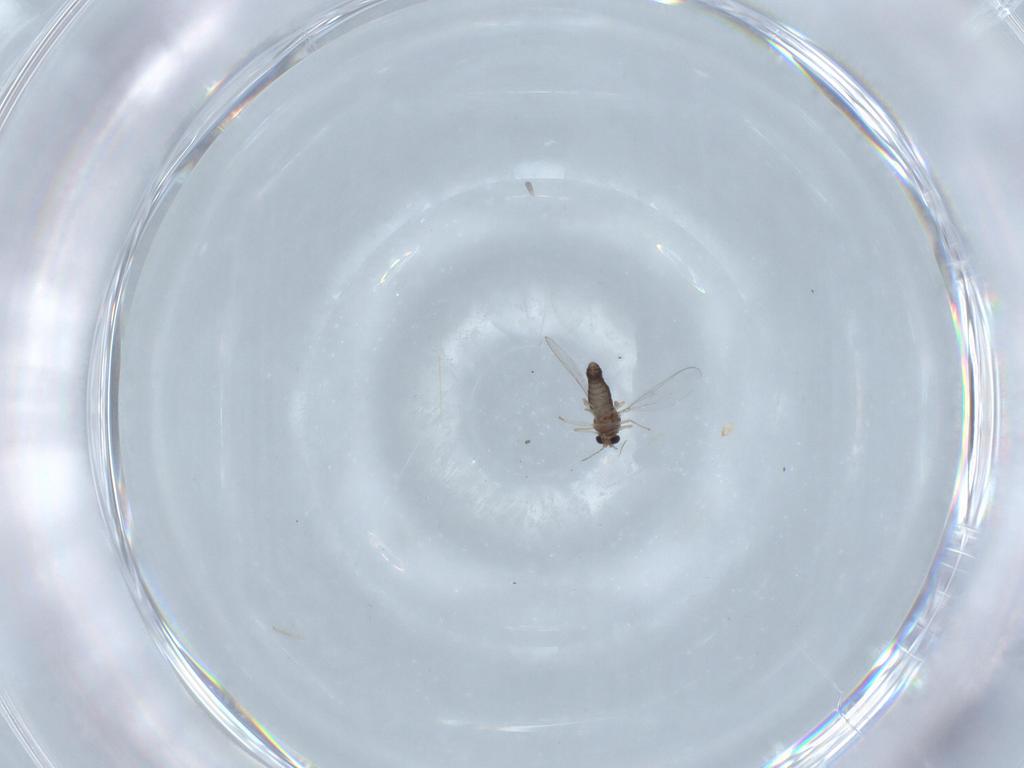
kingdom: Animalia
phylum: Arthropoda
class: Insecta
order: Diptera
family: Chironomidae
